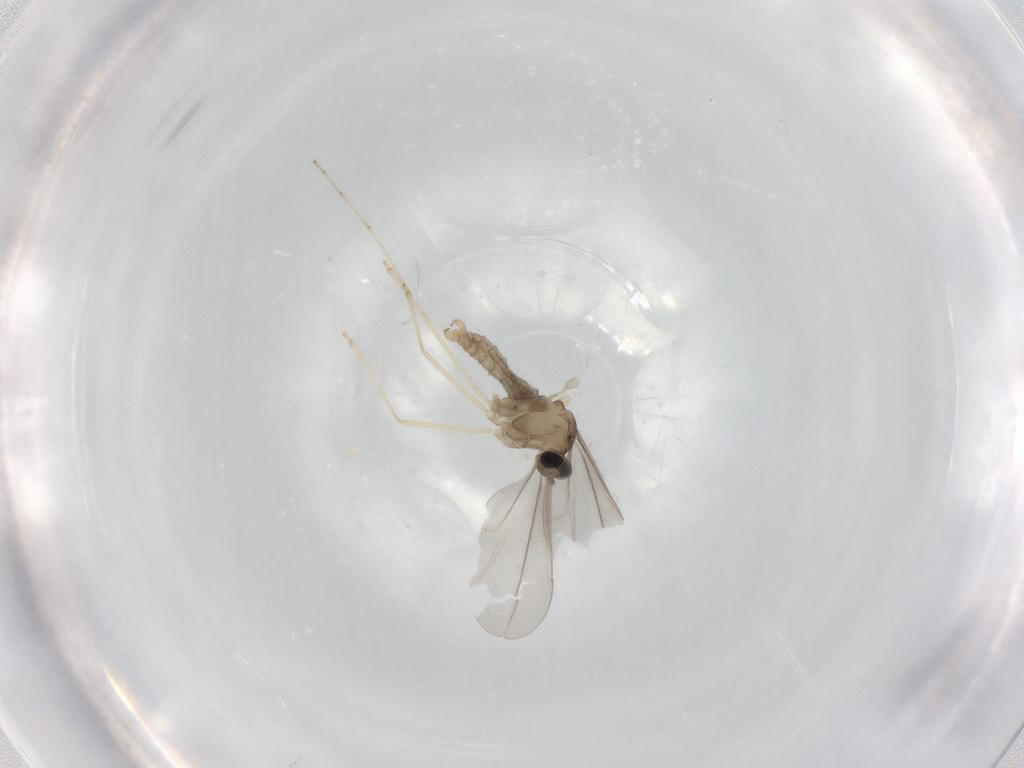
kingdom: Animalia
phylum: Arthropoda
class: Insecta
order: Diptera
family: Cecidomyiidae
